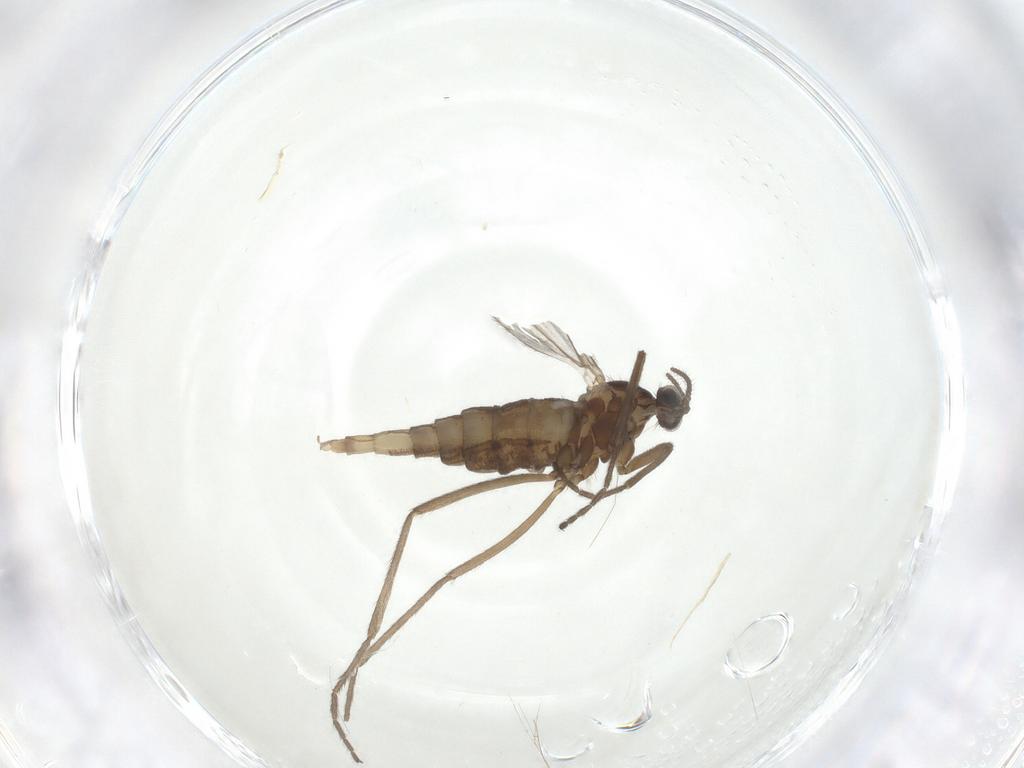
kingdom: Animalia
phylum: Arthropoda
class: Insecta
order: Diptera
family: Cecidomyiidae
